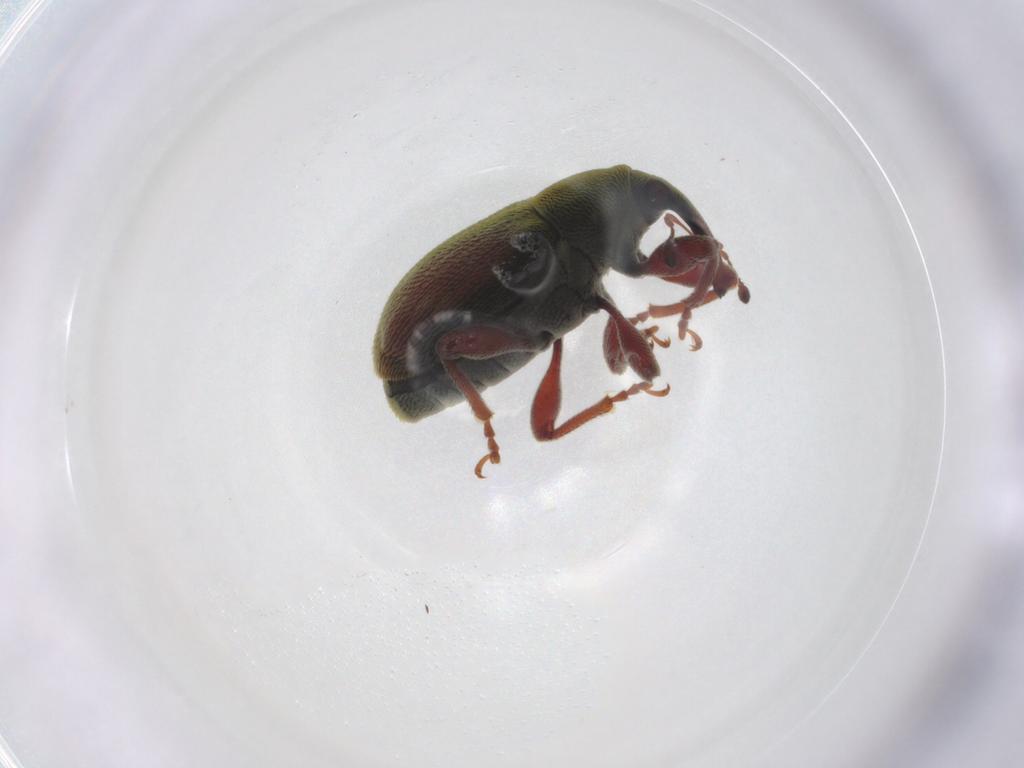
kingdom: Animalia
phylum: Arthropoda
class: Insecta
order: Coleoptera
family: Curculionidae
